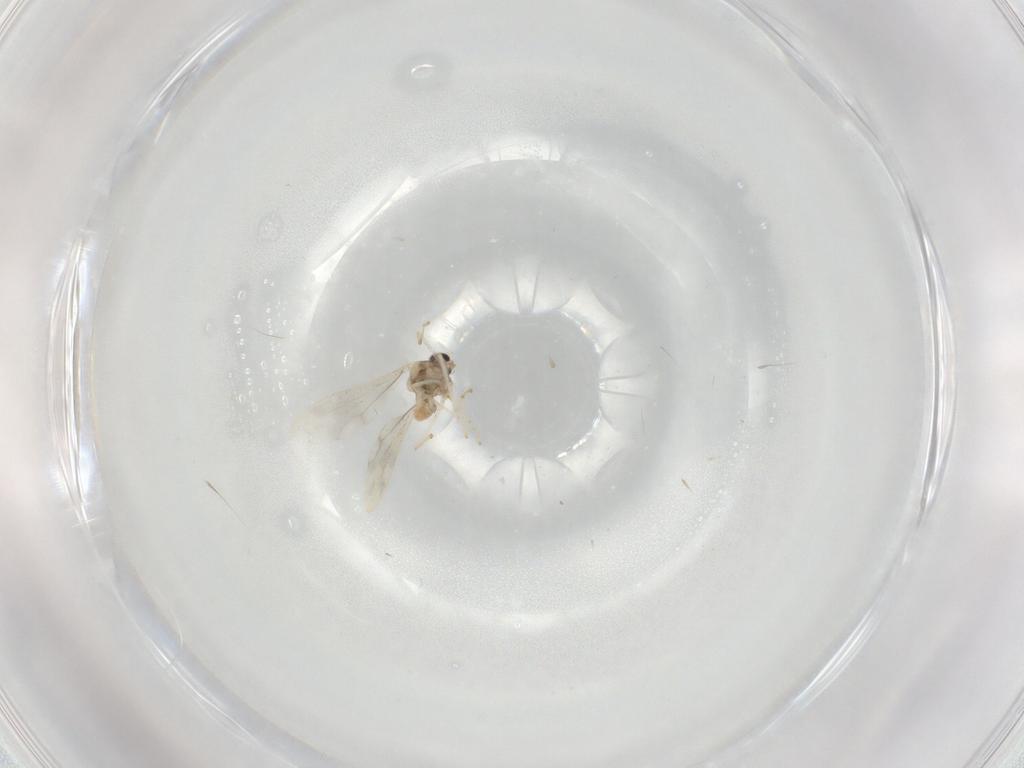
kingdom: Animalia
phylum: Arthropoda
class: Insecta
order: Diptera
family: Cecidomyiidae
